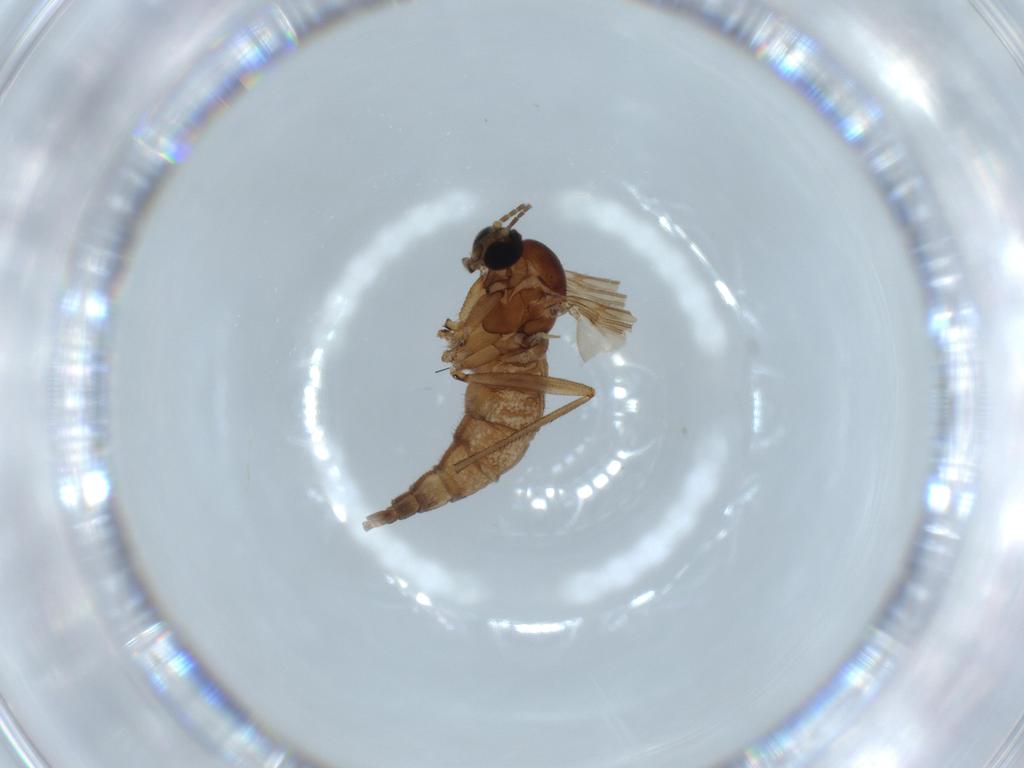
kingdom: Animalia
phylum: Arthropoda
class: Insecta
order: Diptera
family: Sciaridae
